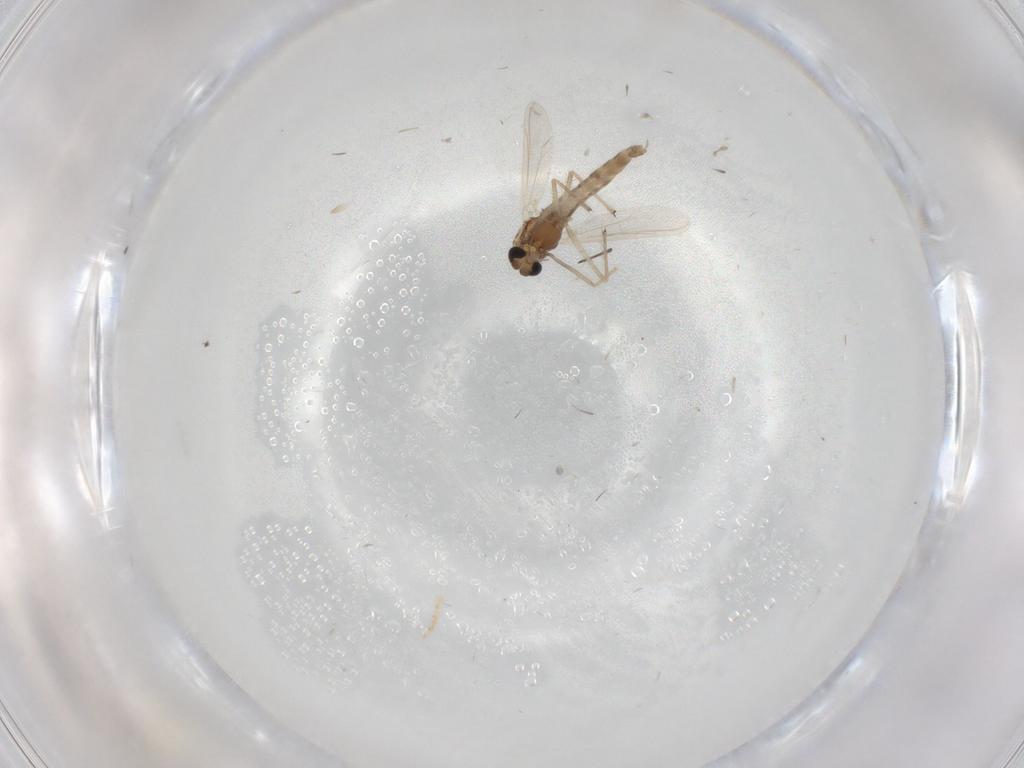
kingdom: Animalia
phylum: Arthropoda
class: Insecta
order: Diptera
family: Chironomidae
